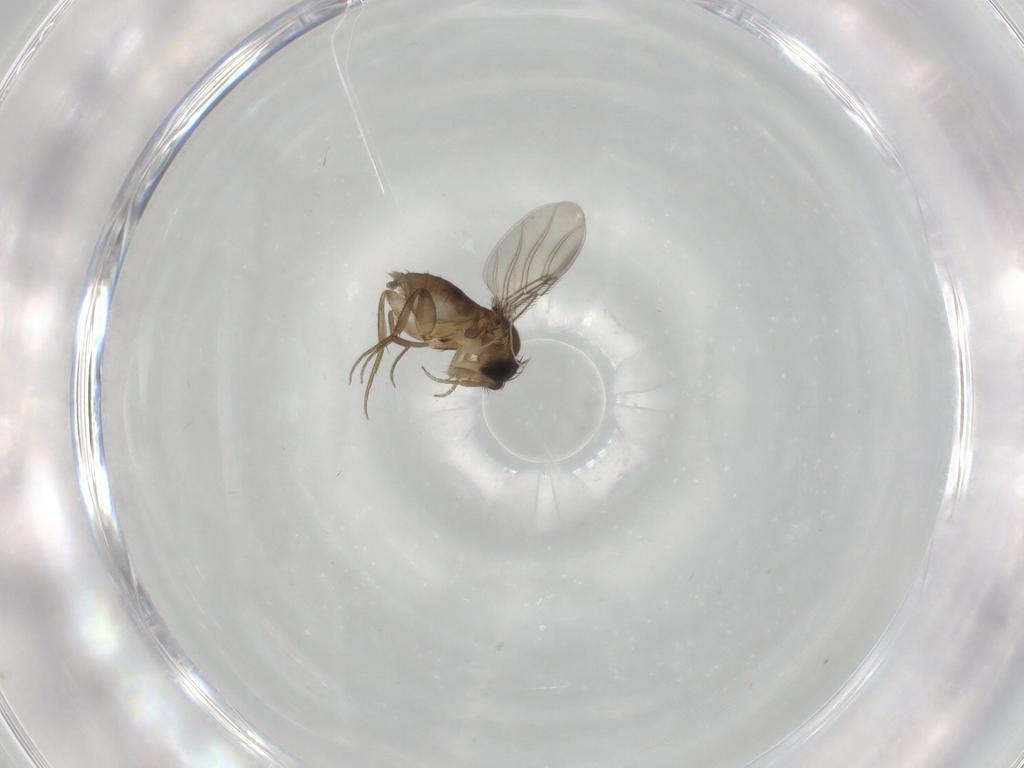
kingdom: Animalia
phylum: Arthropoda
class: Insecta
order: Diptera
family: Phoridae
